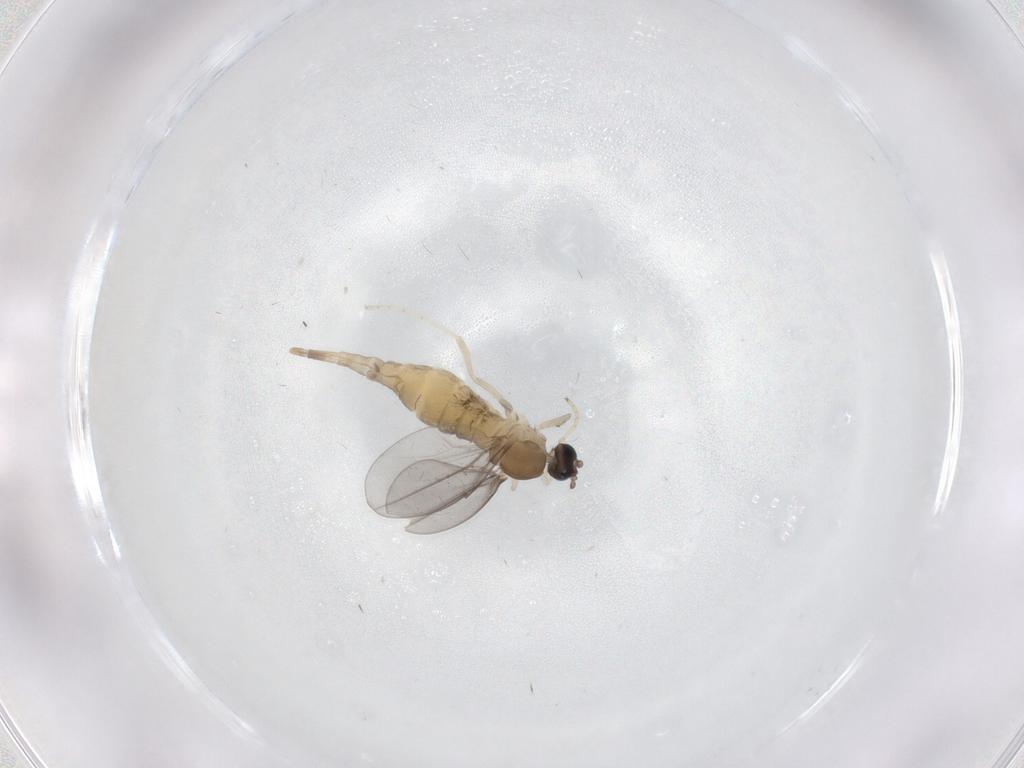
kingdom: Animalia
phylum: Arthropoda
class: Insecta
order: Diptera
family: Cecidomyiidae
